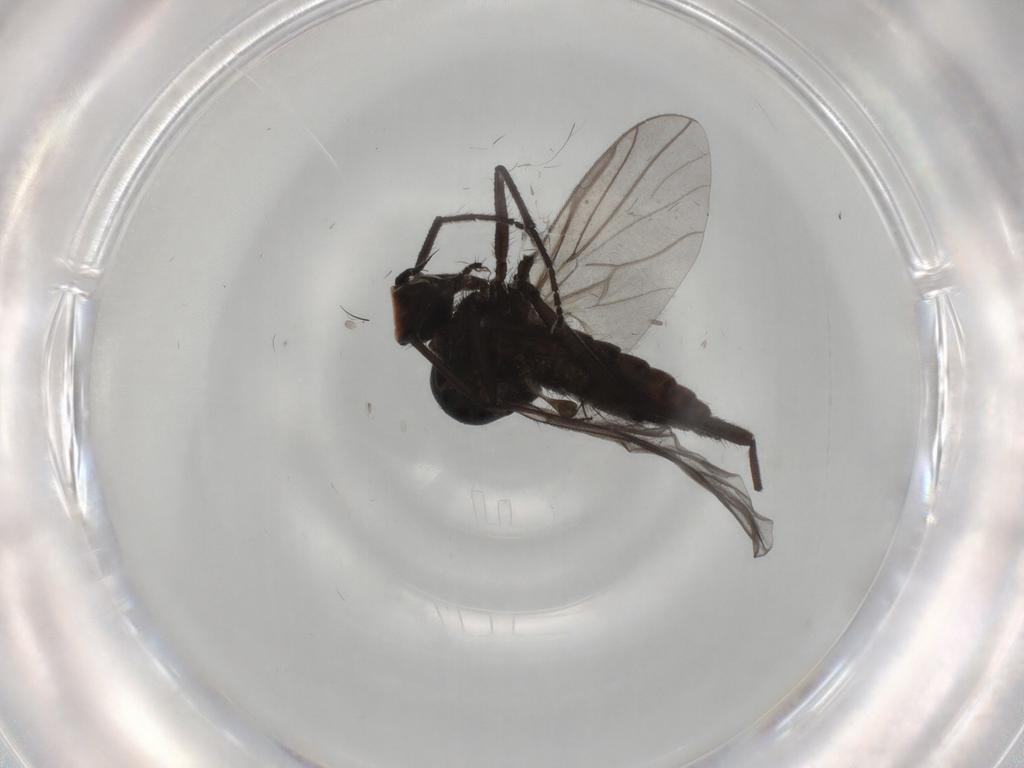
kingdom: Animalia
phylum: Arthropoda
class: Insecta
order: Diptera
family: Hybotidae
